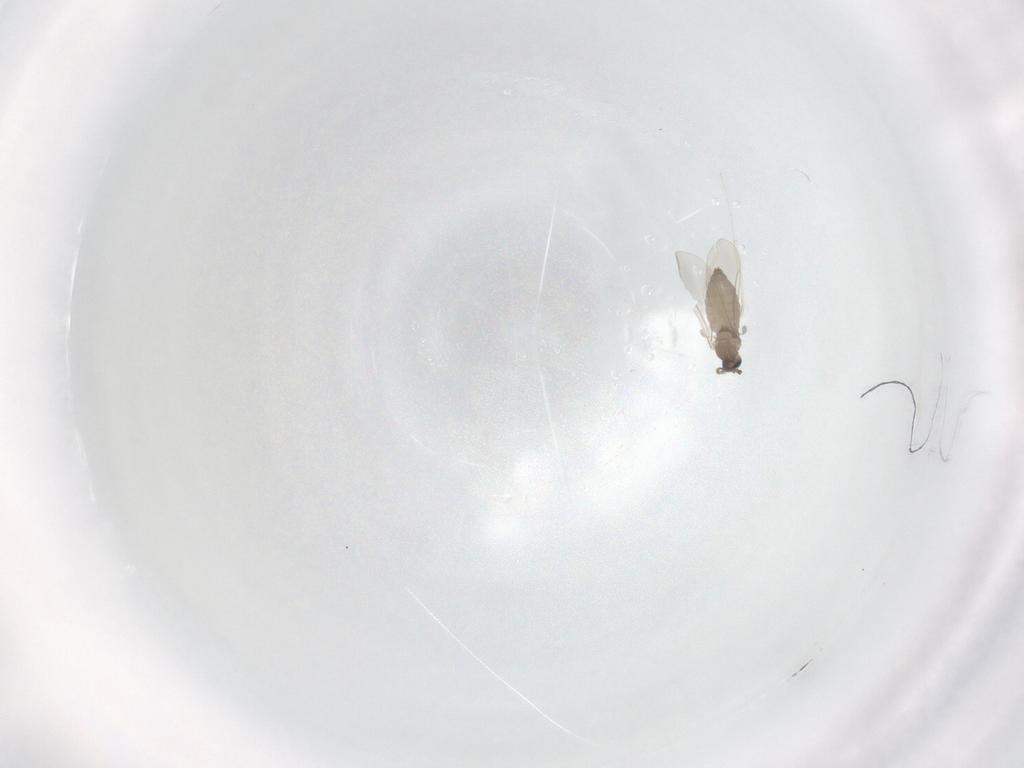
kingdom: Animalia
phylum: Arthropoda
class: Insecta
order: Diptera
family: Cecidomyiidae
